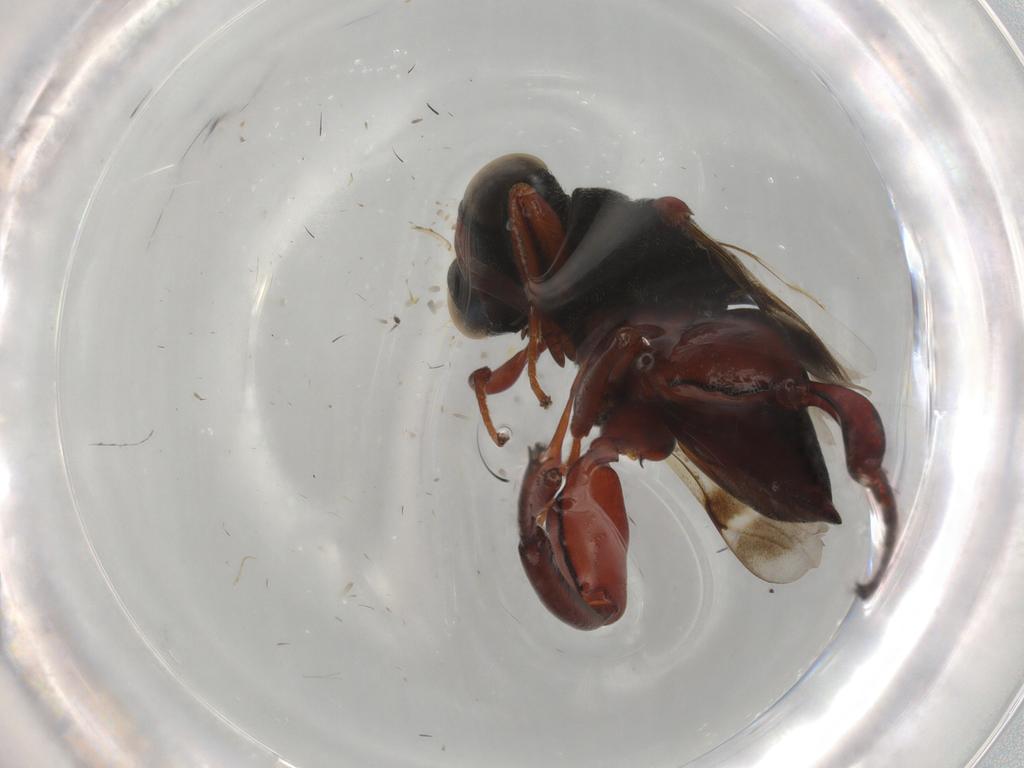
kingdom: Animalia
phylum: Arthropoda
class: Insecta
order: Hymenoptera
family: Chalcididae
